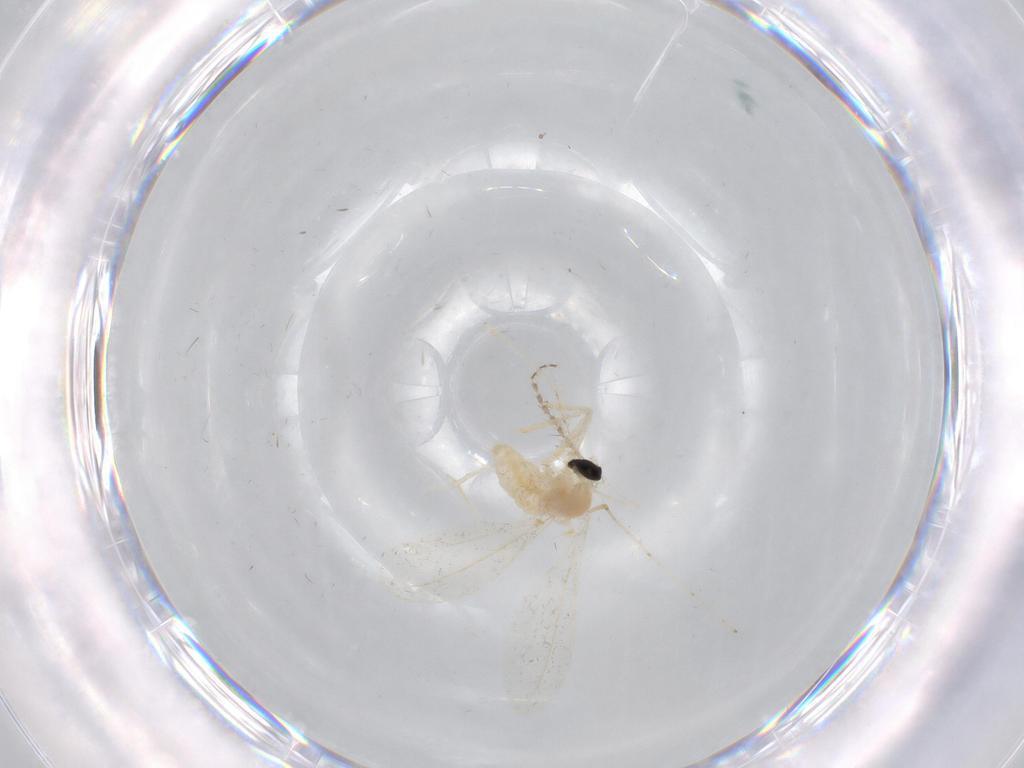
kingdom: Animalia
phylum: Arthropoda
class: Insecta
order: Diptera
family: Cecidomyiidae
